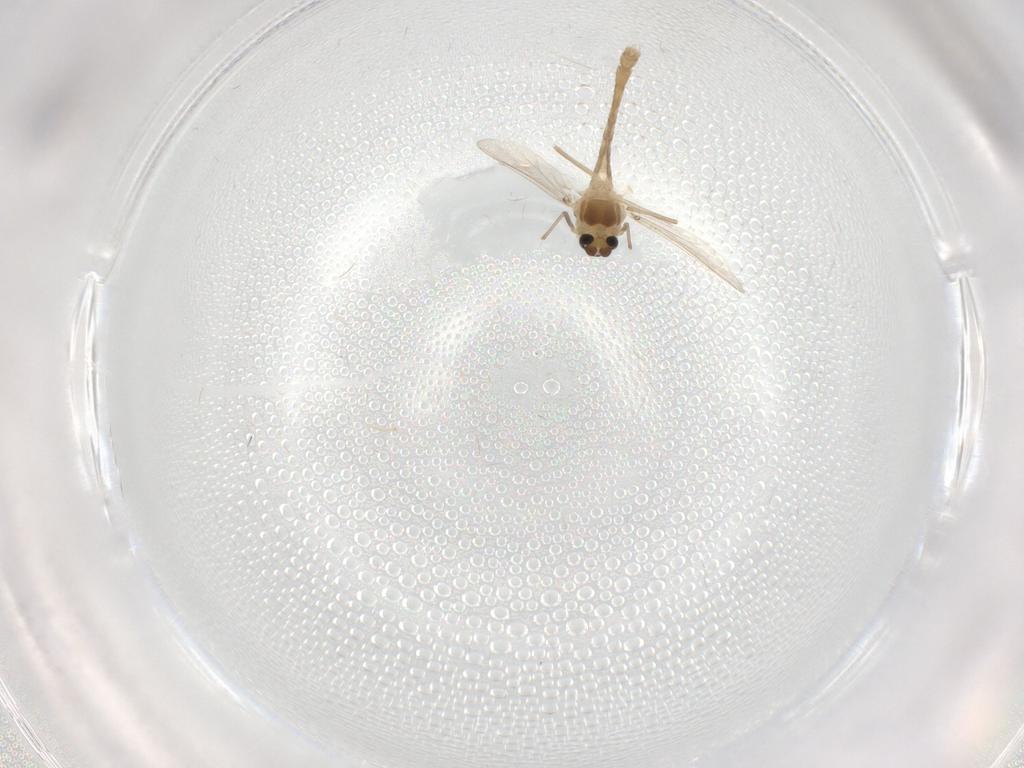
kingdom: Animalia
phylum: Arthropoda
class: Insecta
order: Diptera
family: Chironomidae
